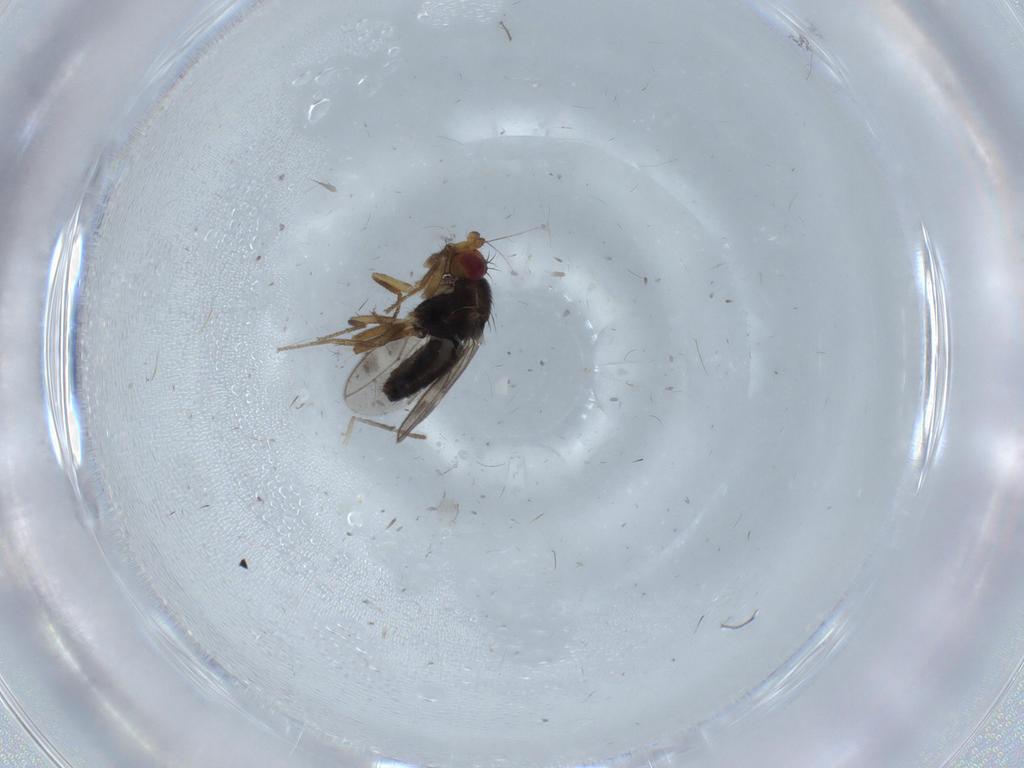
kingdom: Animalia
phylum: Arthropoda
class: Insecta
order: Diptera
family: Sphaeroceridae
